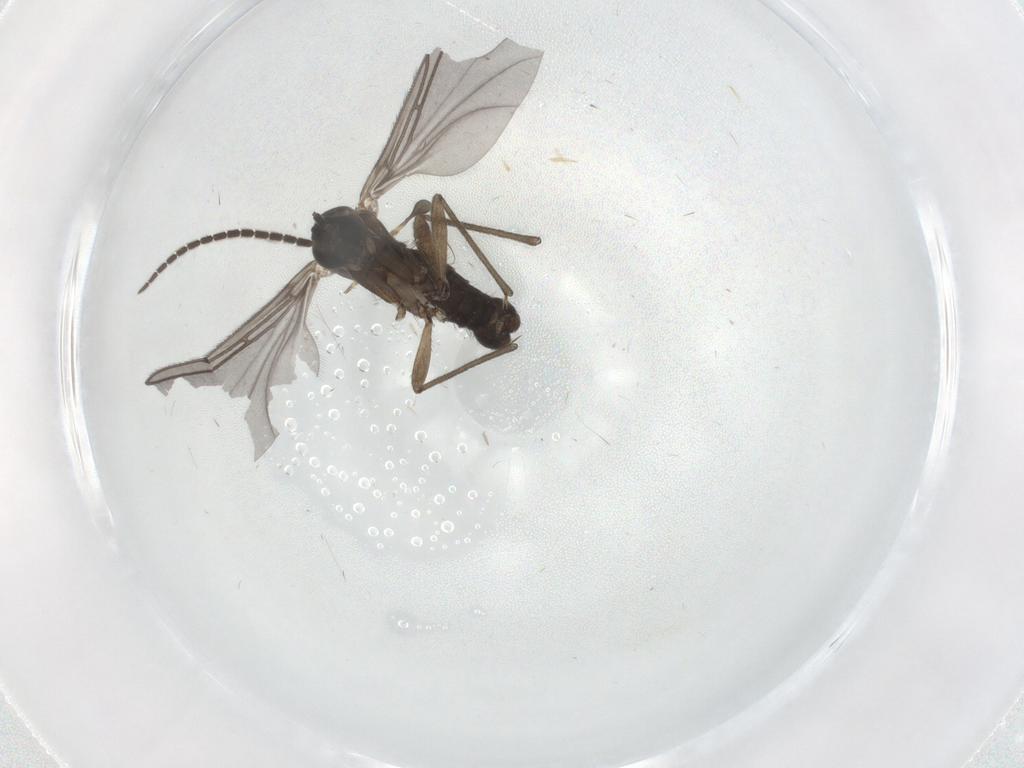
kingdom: Animalia
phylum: Arthropoda
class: Insecta
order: Diptera
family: Sciaridae
